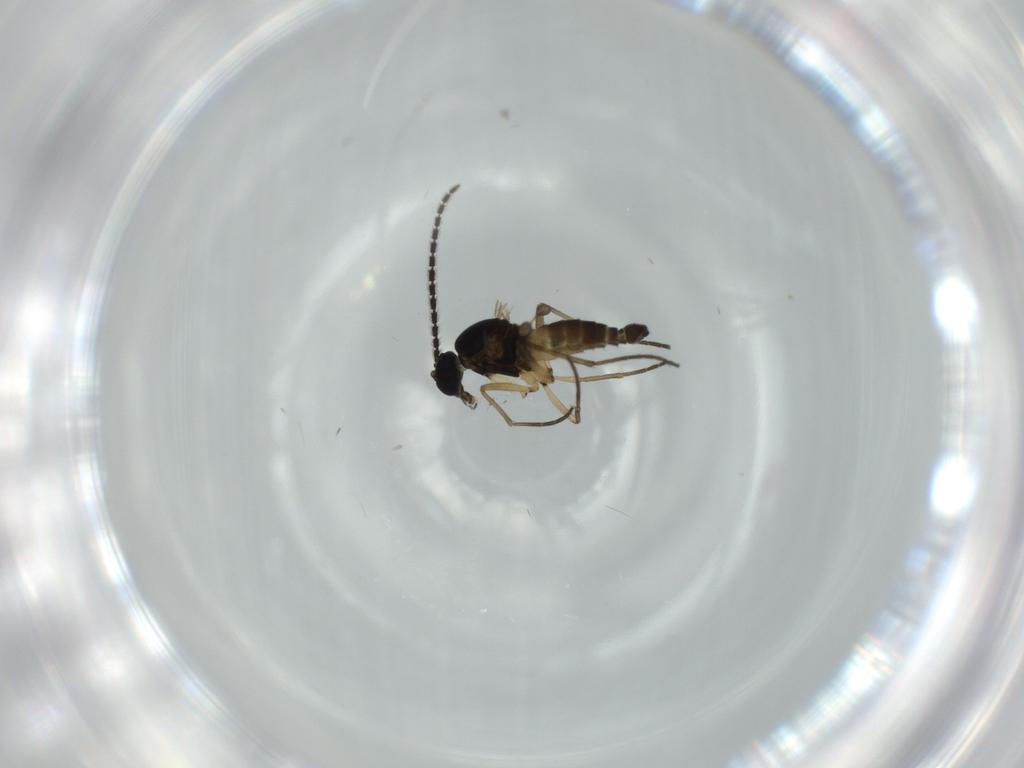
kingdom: Animalia
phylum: Arthropoda
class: Insecta
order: Diptera
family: Sciaridae
